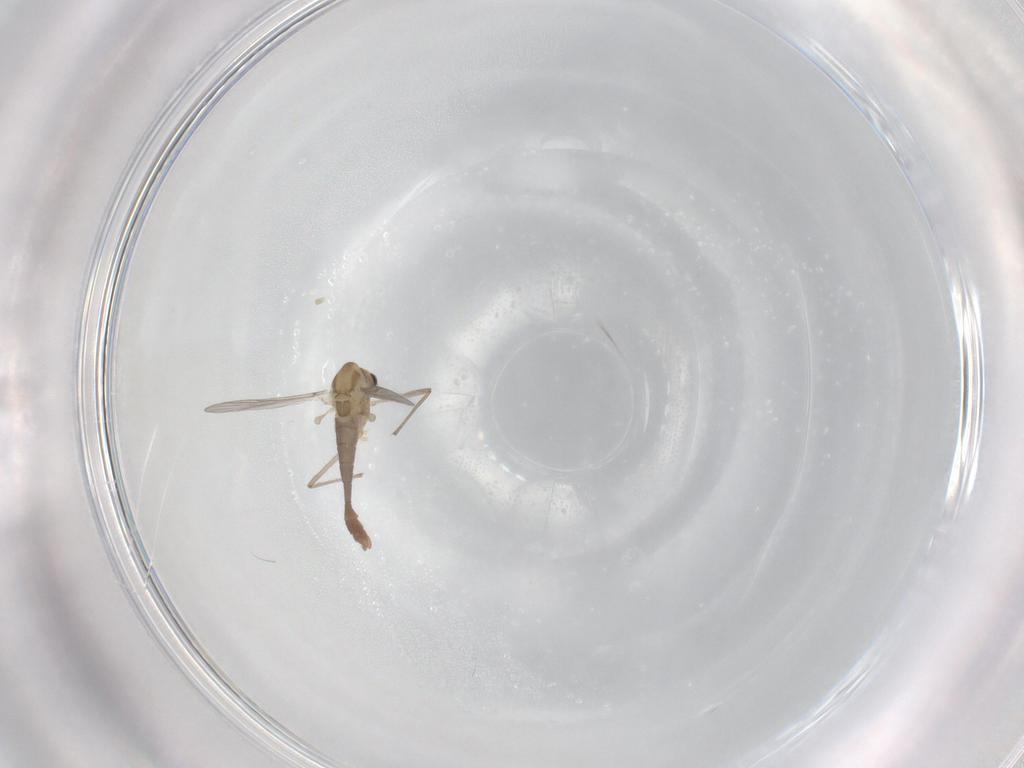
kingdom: Animalia
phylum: Arthropoda
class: Insecta
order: Diptera
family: Chironomidae
